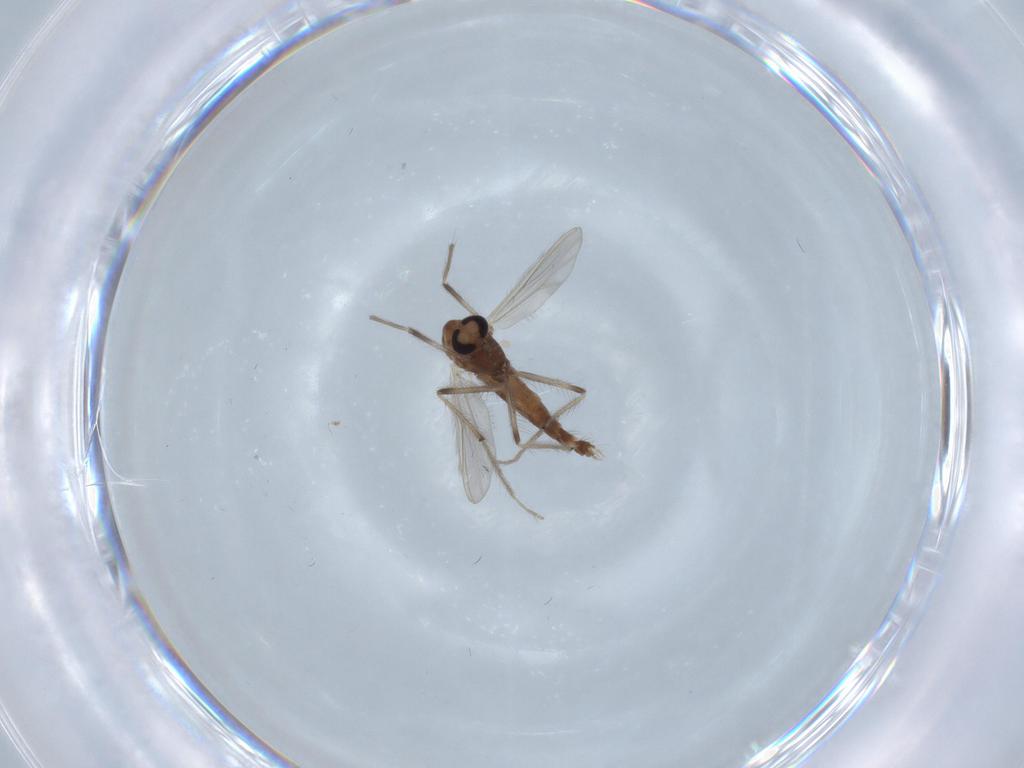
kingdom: Animalia
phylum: Arthropoda
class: Insecta
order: Diptera
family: Chironomidae
